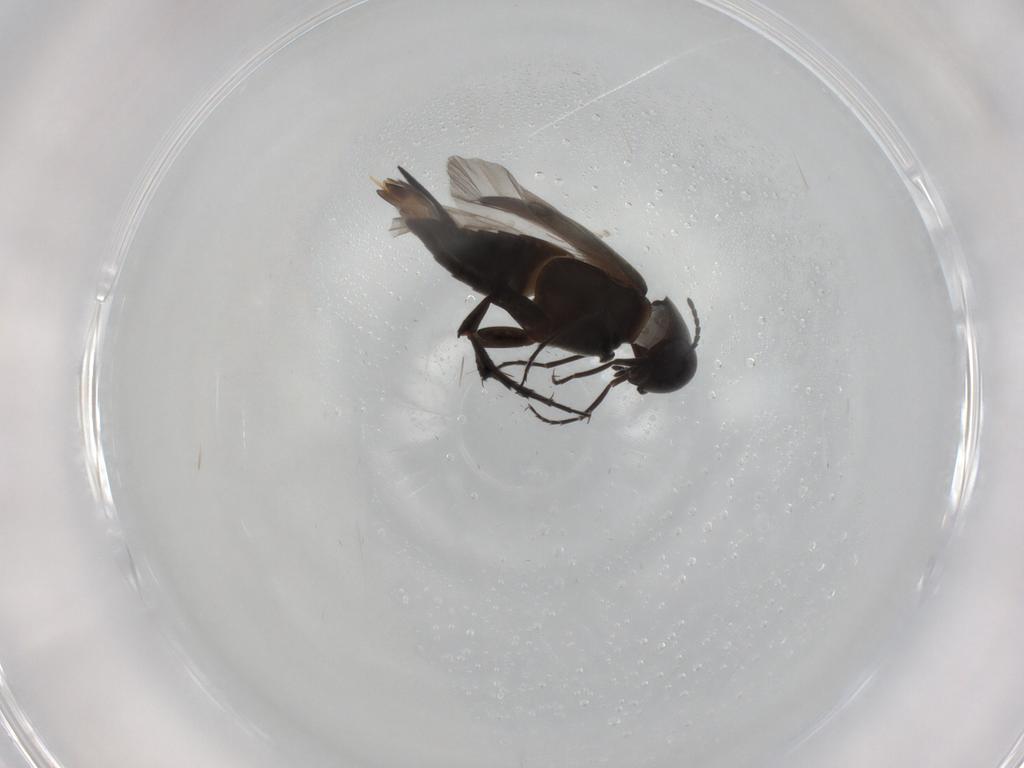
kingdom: Animalia
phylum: Arthropoda
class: Insecta
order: Coleoptera
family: Mordellidae
